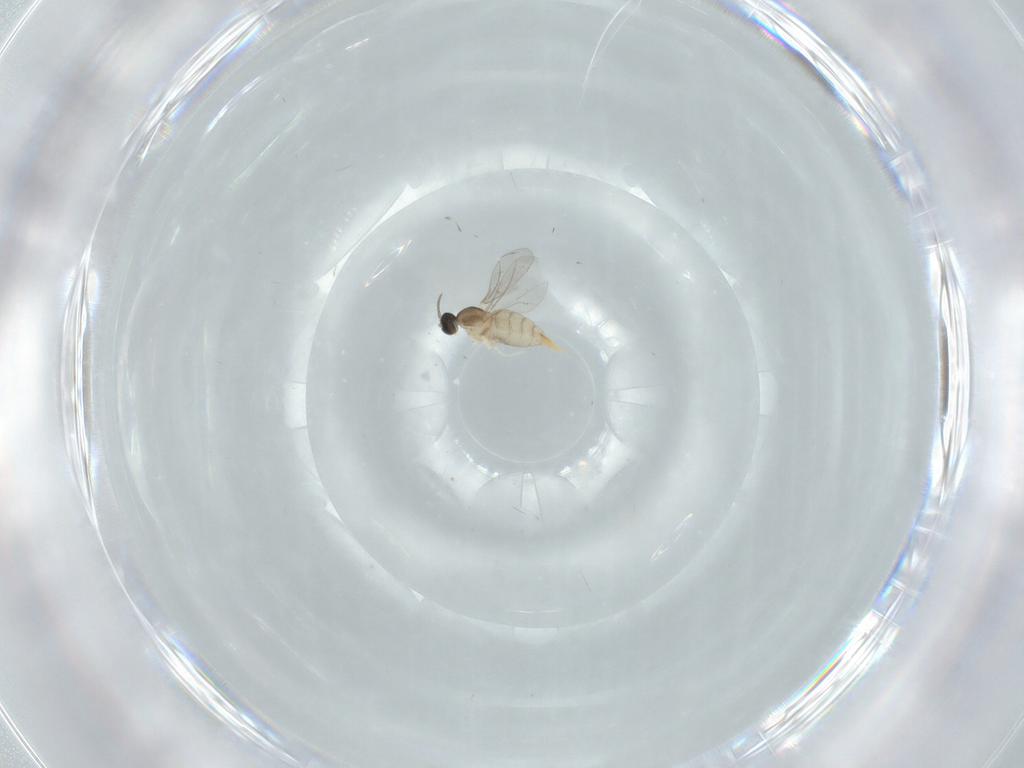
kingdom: Animalia
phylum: Arthropoda
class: Insecta
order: Diptera
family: Cecidomyiidae
